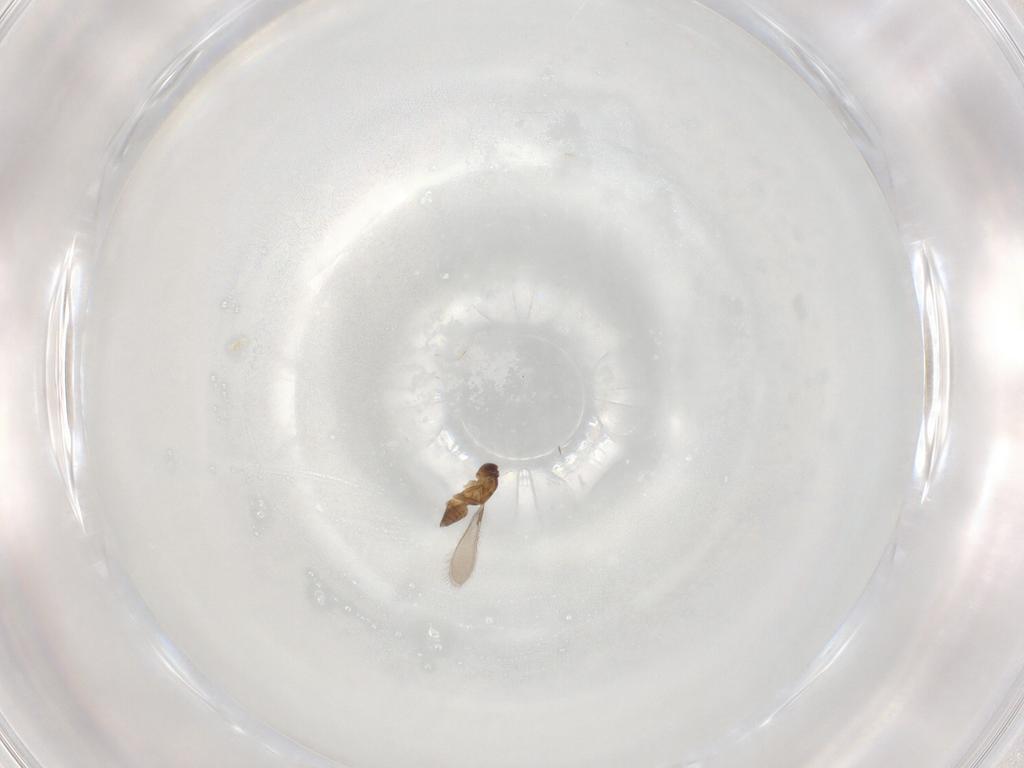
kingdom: Animalia
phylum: Arthropoda
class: Insecta
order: Hymenoptera
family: Mymaridae
